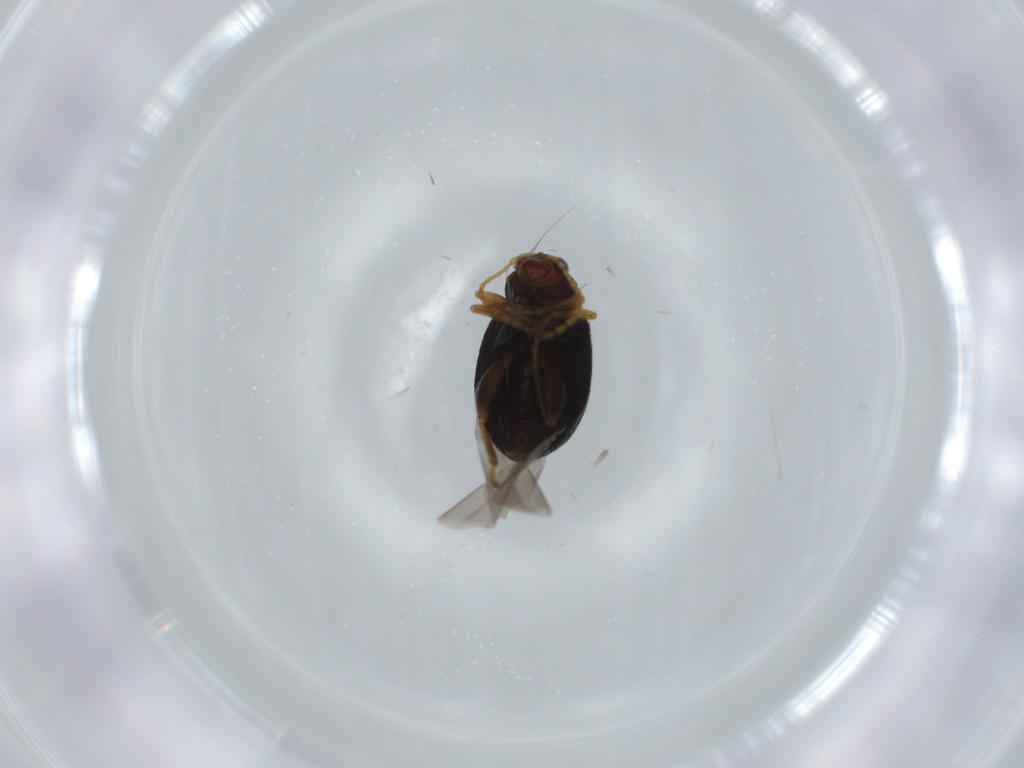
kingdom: Animalia
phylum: Arthropoda
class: Insecta
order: Coleoptera
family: Chrysomelidae
